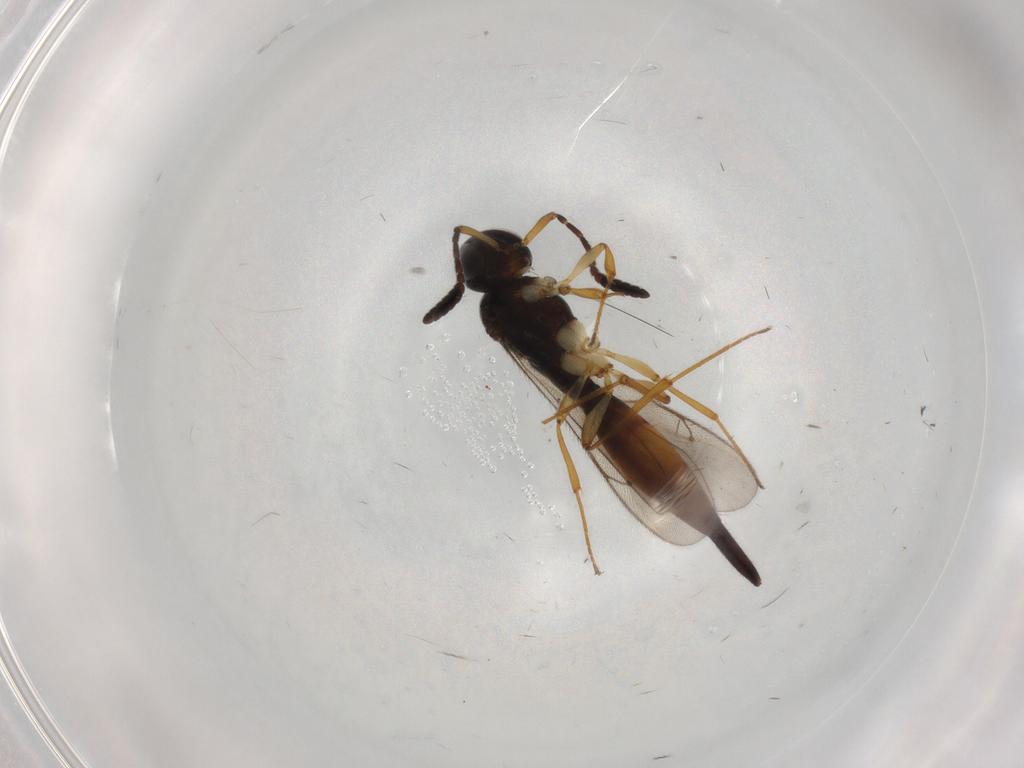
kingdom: Animalia
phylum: Arthropoda
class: Insecta
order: Hymenoptera
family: Scelionidae
